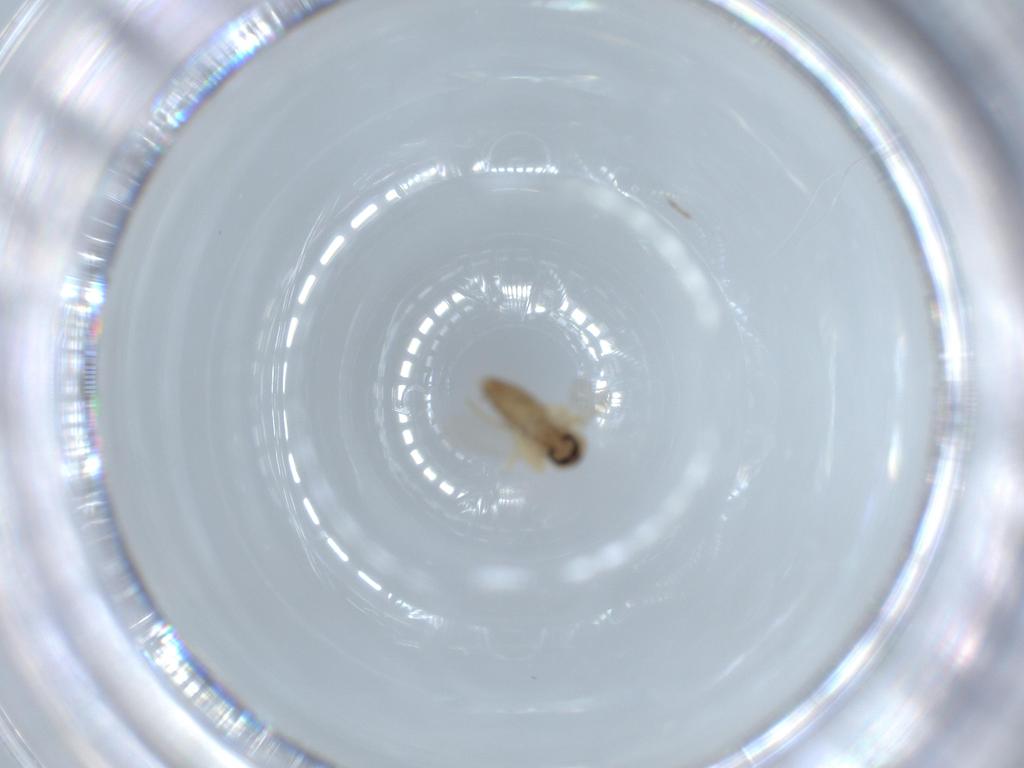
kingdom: Animalia
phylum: Arthropoda
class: Insecta
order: Diptera
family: Ceratopogonidae
